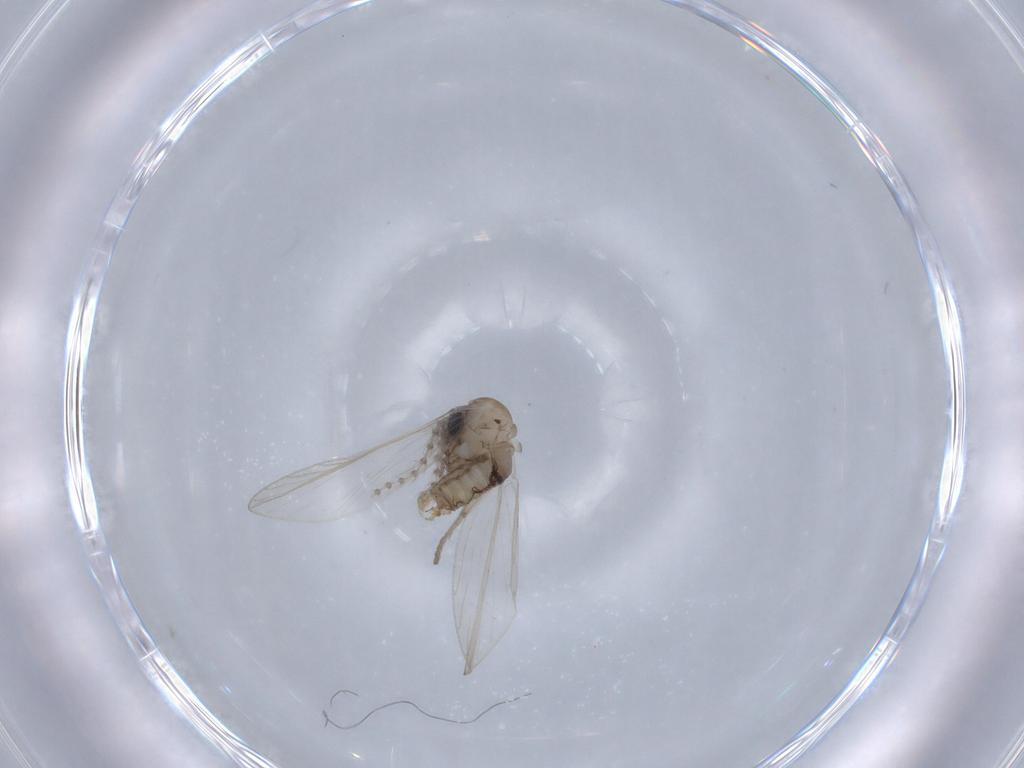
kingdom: Animalia
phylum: Arthropoda
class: Insecta
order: Diptera
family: Psychodidae
